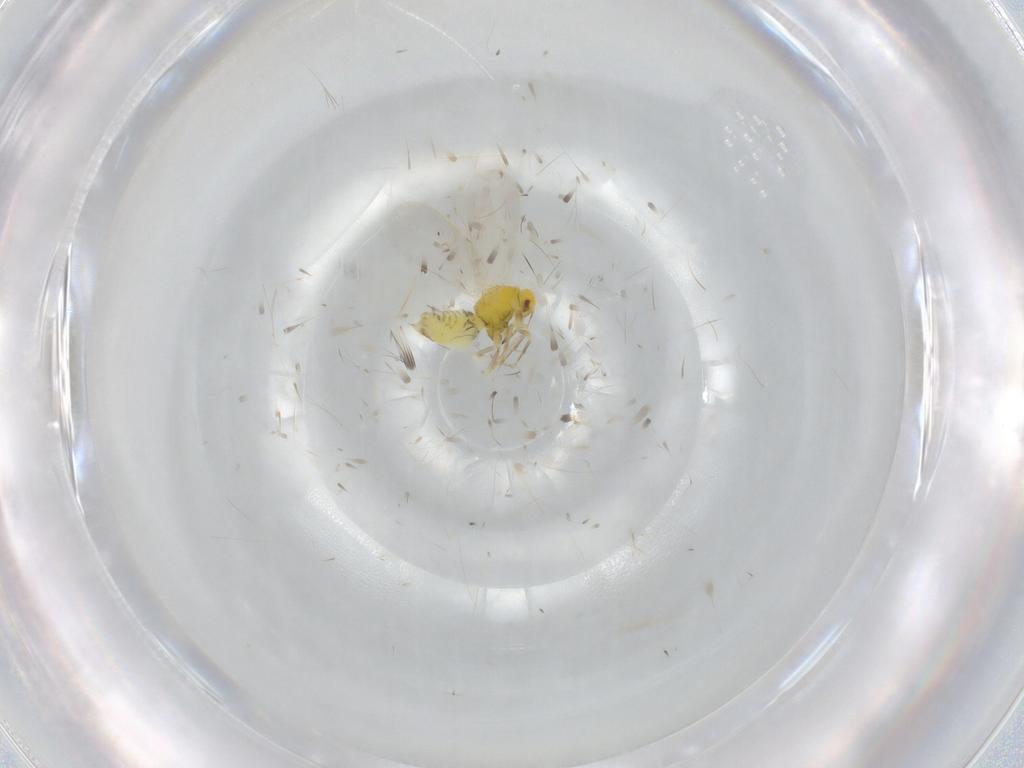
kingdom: Animalia
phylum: Arthropoda
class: Insecta
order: Hemiptera
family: Aleyrodidae
